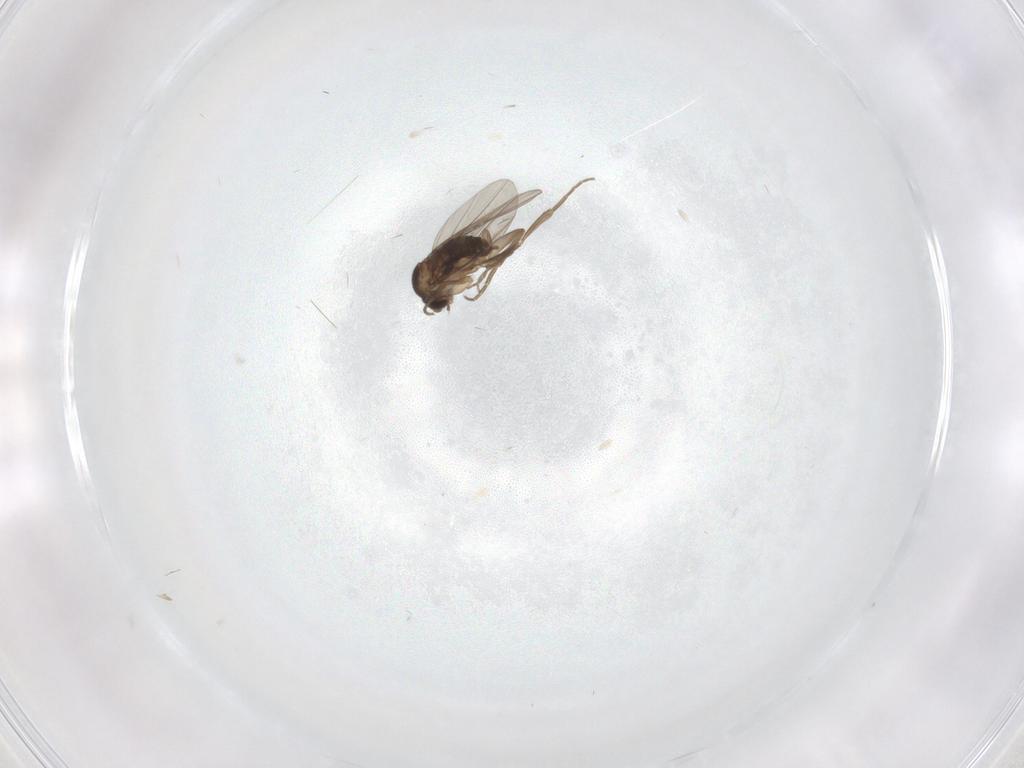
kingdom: Animalia
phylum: Arthropoda
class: Insecta
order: Diptera
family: Phoridae
